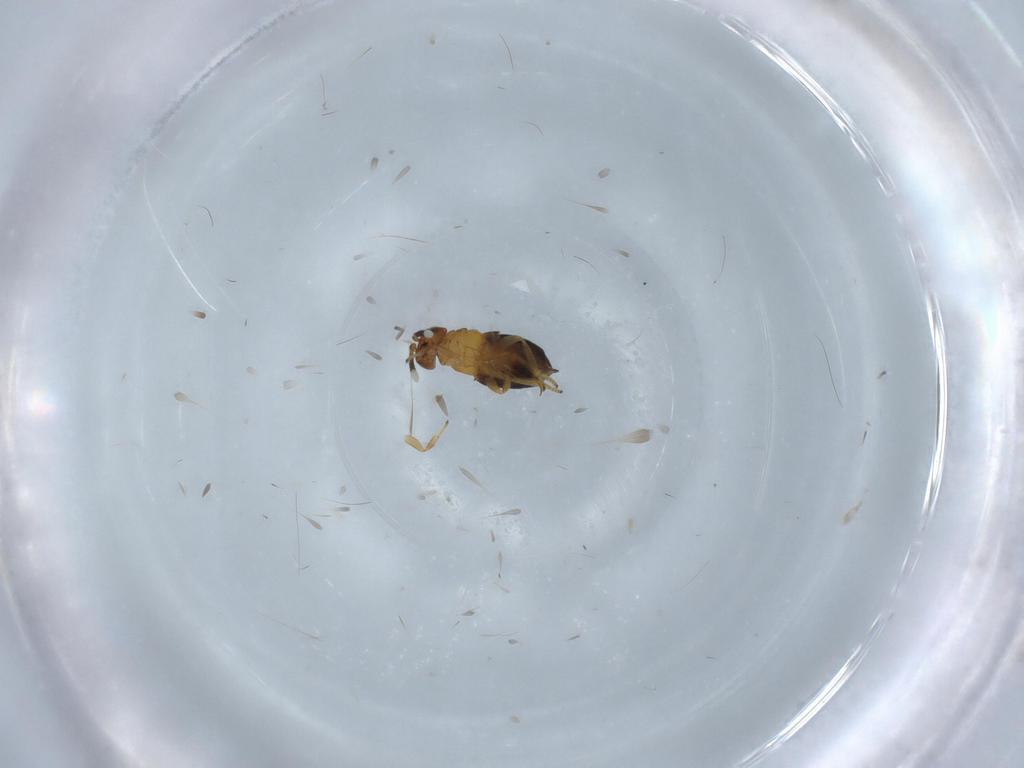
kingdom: Animalia
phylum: Arthropoda
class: Insecta
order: Hymenoptera
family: Braconidae
